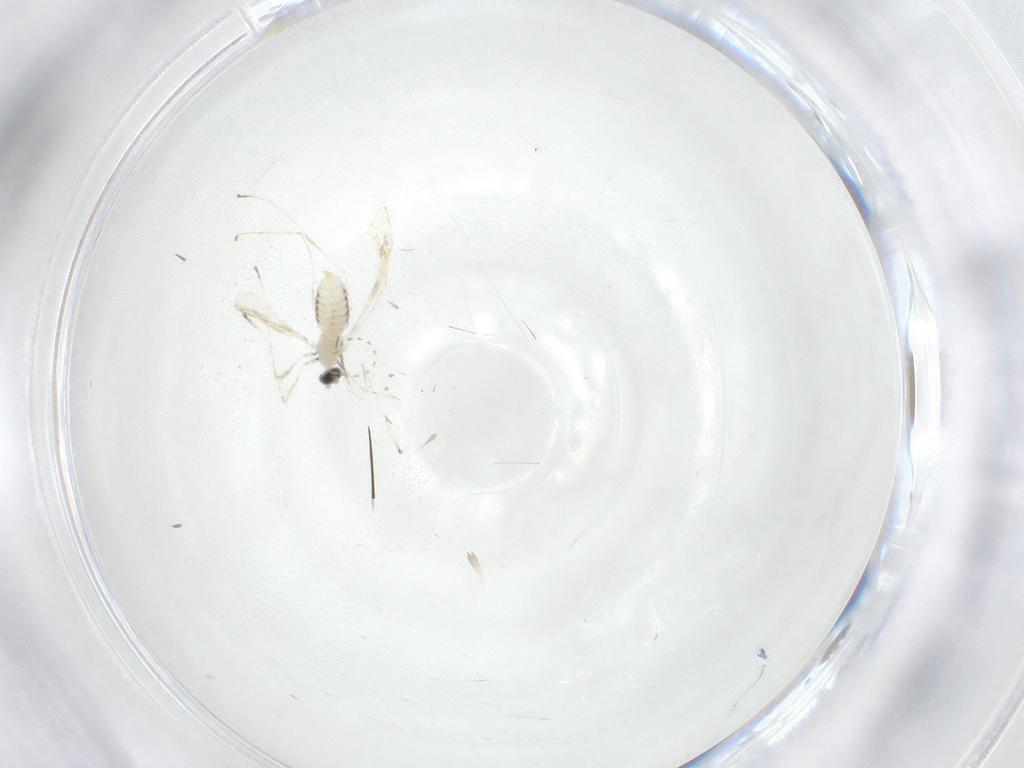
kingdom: Animalia
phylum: Arthropoda
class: Insecta
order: Diptera
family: Cecidomyiidae
